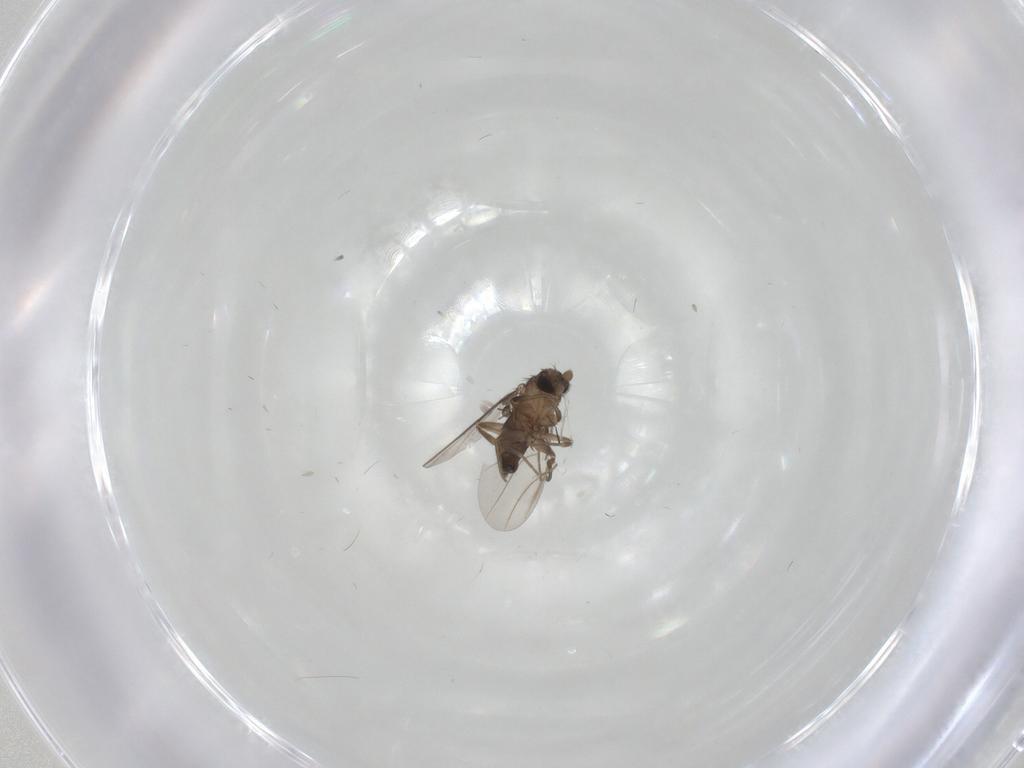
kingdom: Animalia
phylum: Arthropoda
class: Insecta
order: Diptera
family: Phoridae
